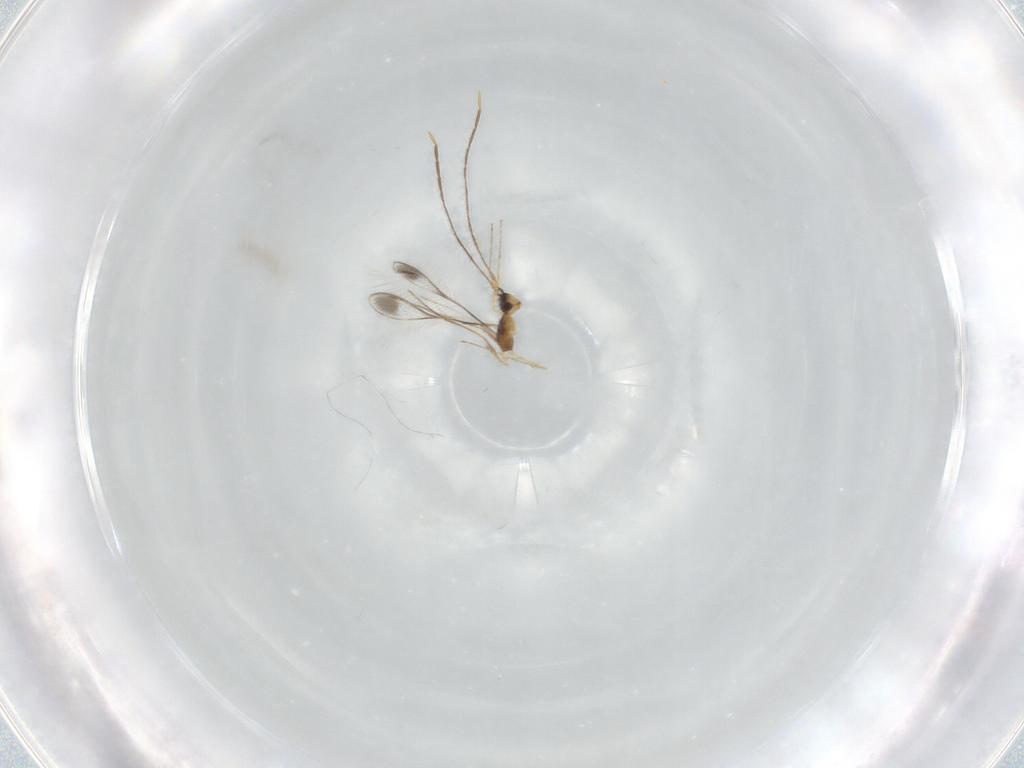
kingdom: Animalia
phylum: Arthropoda
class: Insecta
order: Hymenoptera
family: Mymaridae
